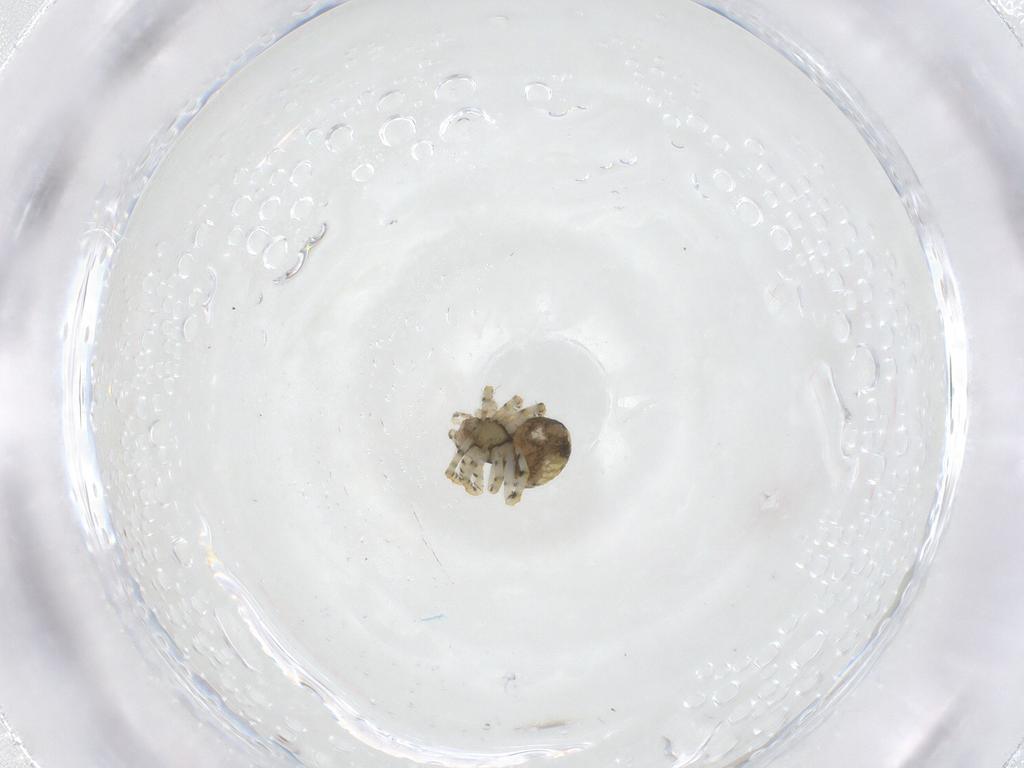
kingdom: Animalia
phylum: Arthropoda
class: Arachnida
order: Araneae
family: Theridiidae
